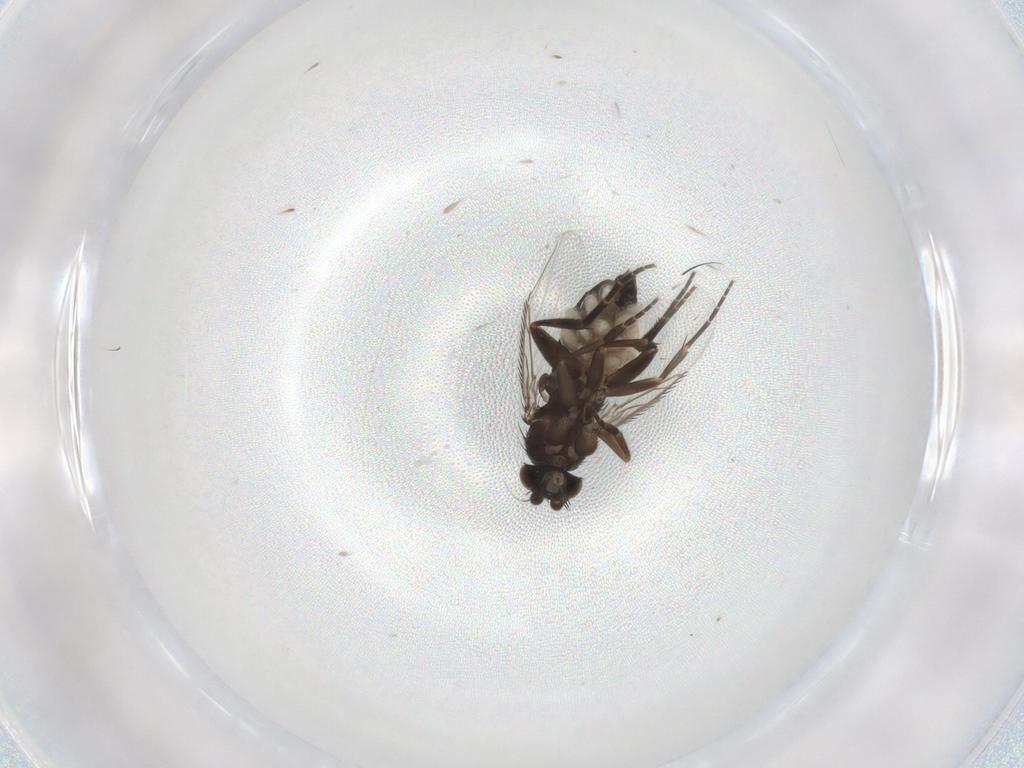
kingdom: Animalia
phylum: Arthropoda
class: Insecta
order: Diptera
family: Phoridae
